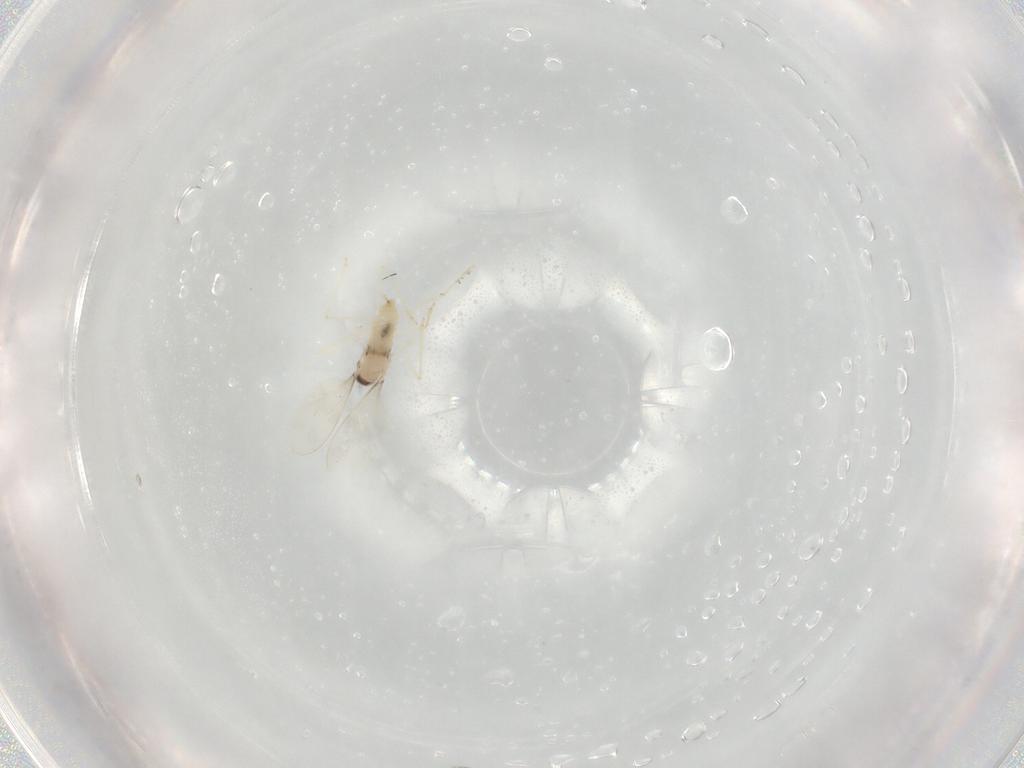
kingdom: Animalia
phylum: Arthropoda
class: Insecta
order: Diptera
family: Cecidomyiidae
